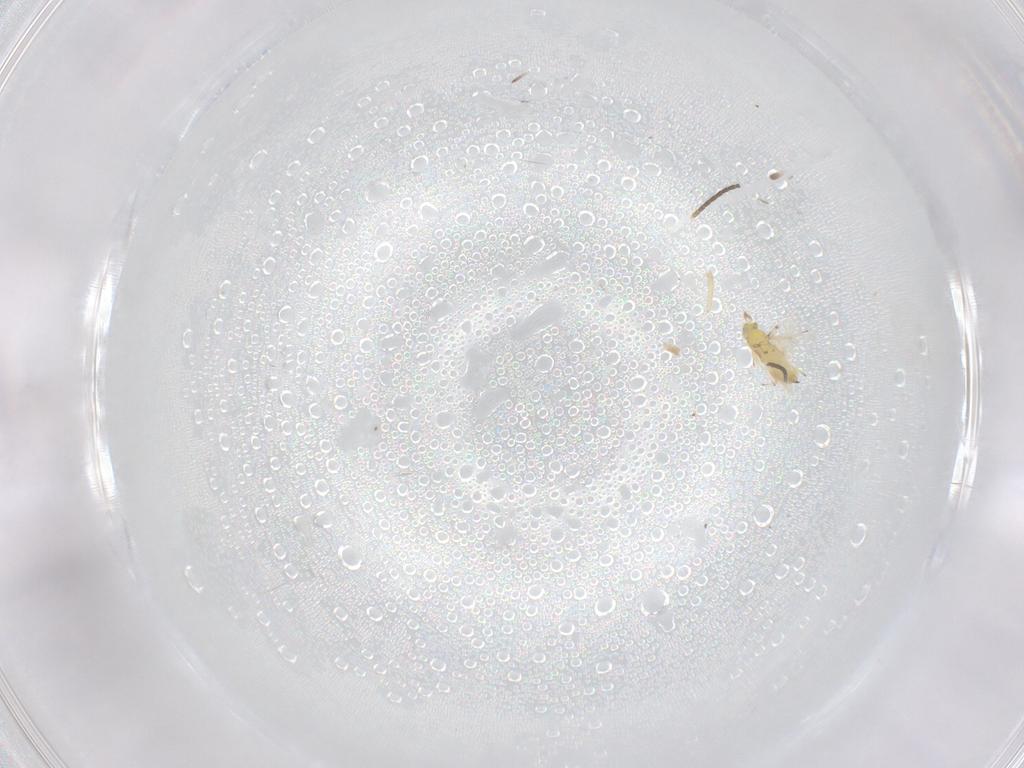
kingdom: Animalia
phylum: Arthropoda
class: Insecta
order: Hymenoptera
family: Trichogrammatidae
